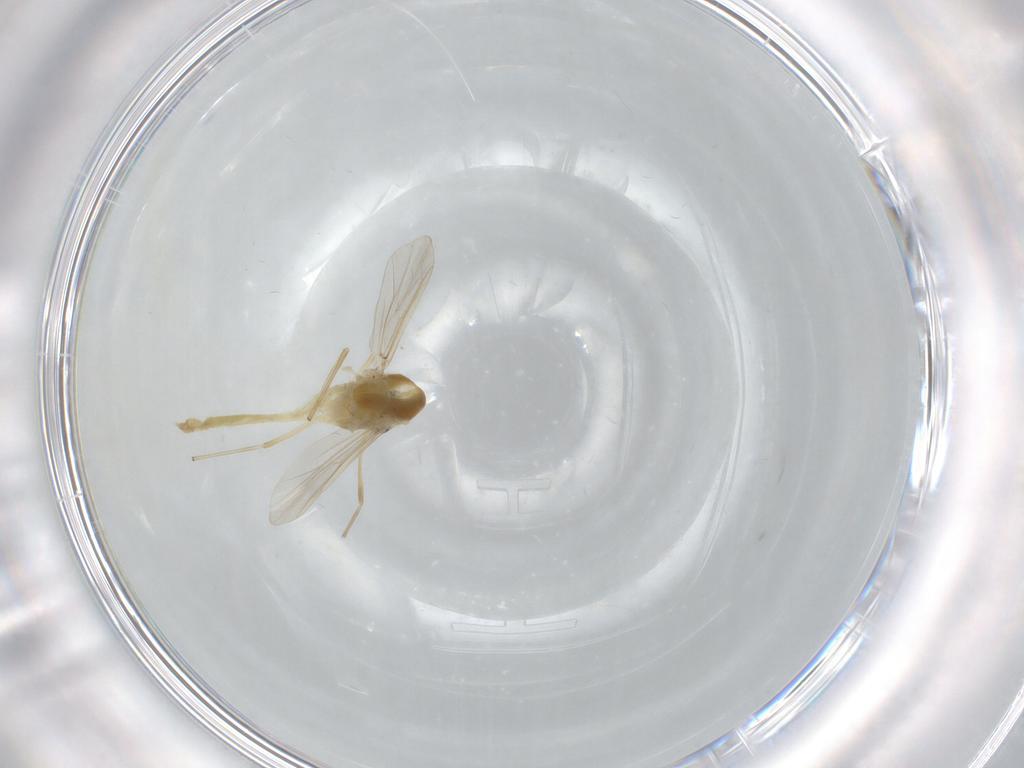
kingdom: Animalia
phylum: Arthropoda
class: Insecta
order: Diptera
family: Chironomidae
